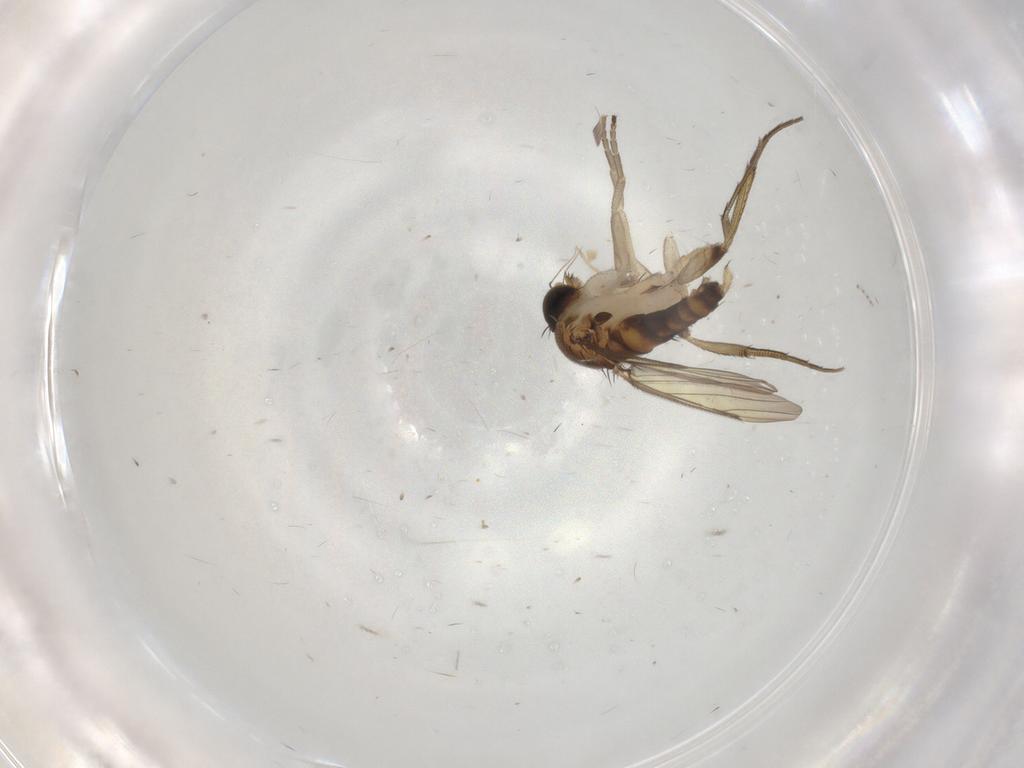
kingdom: Animalia
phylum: Arthropoda
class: Insecta
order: Diptera
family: Phoridae
